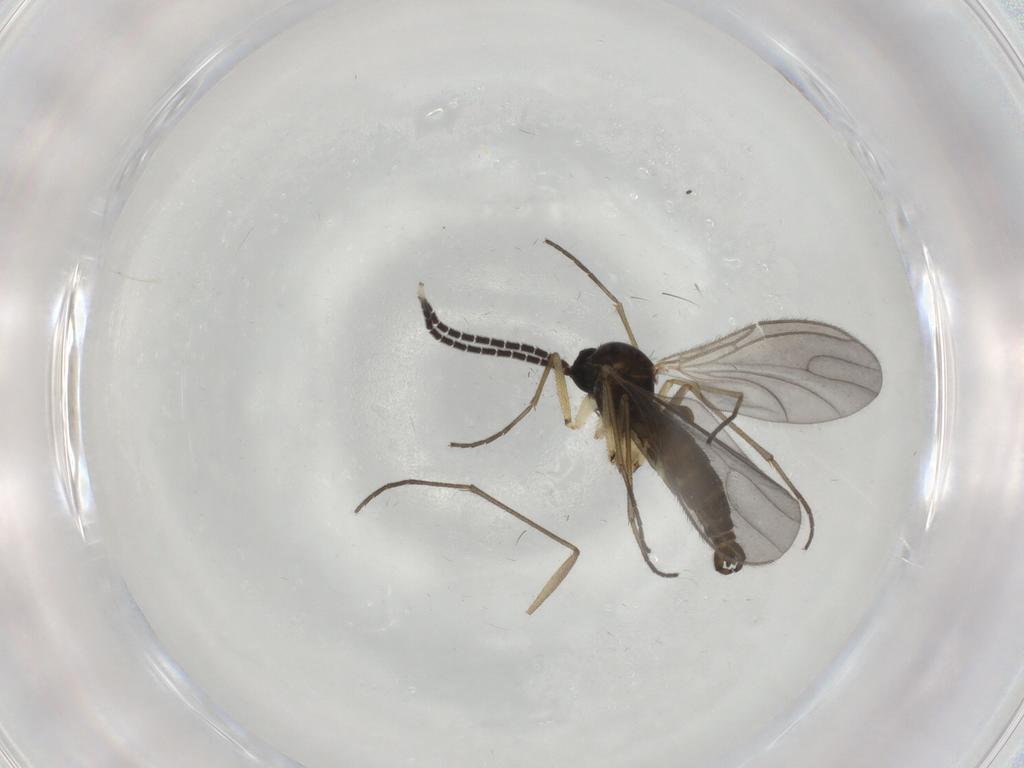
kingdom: Animalia
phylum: Arthropoda
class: Insecta
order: Diptera
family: Sciaridae
